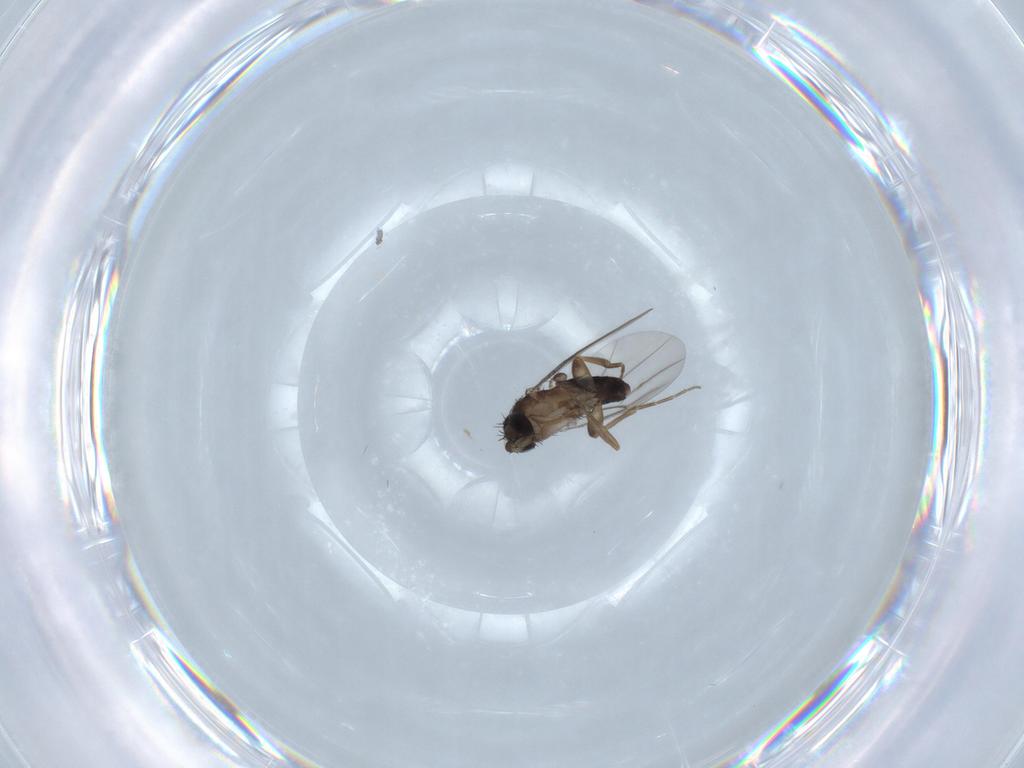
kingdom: Animalia
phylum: Arthropoda
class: Insecta
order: Diptera
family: Phoridae
